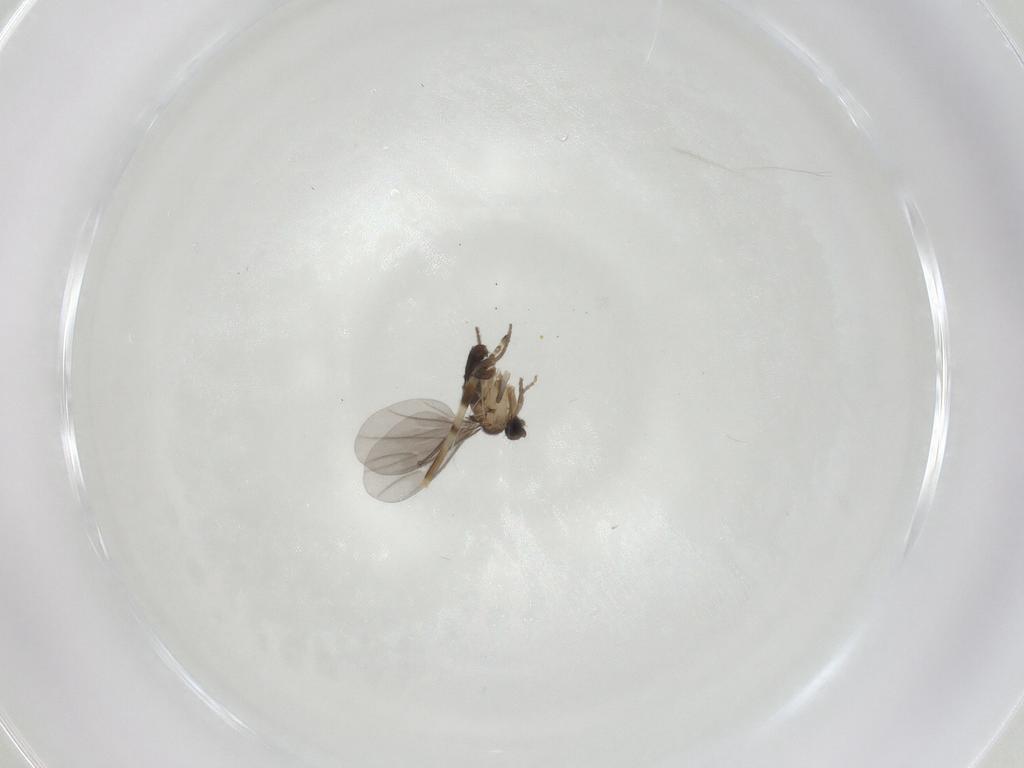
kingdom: Animalia
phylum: Arthropoda
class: Insecta
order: Diptera
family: Phoridae
